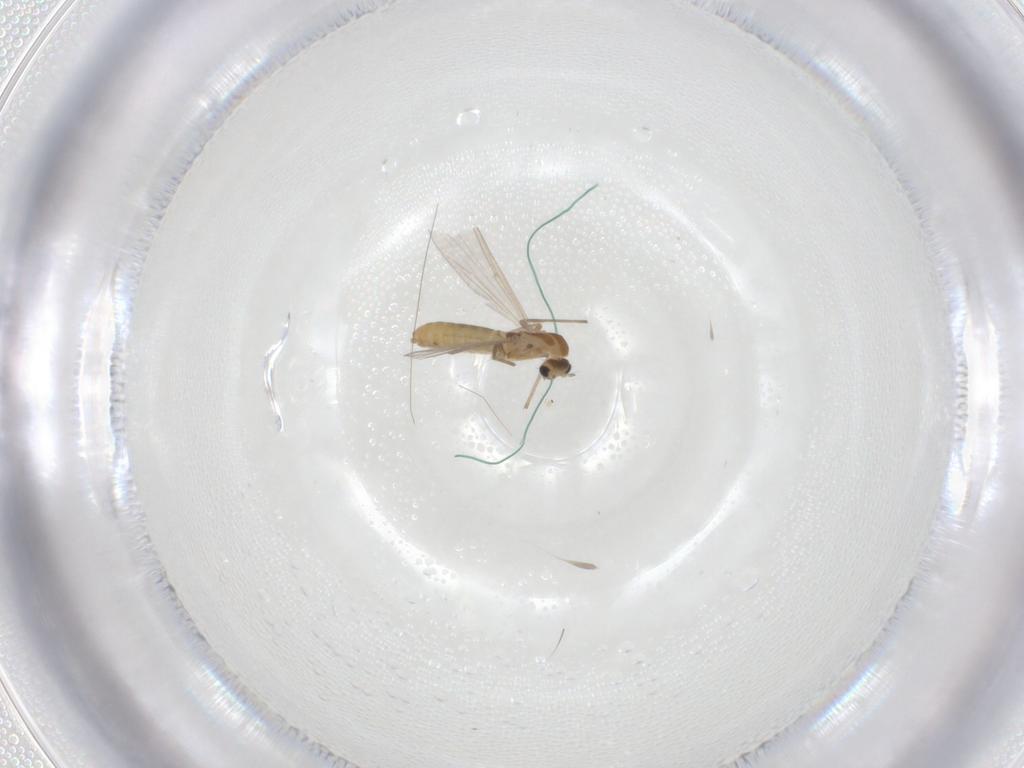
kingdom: Animalia
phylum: Arthropoda
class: Insecta
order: Diptera
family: Chironomidae
